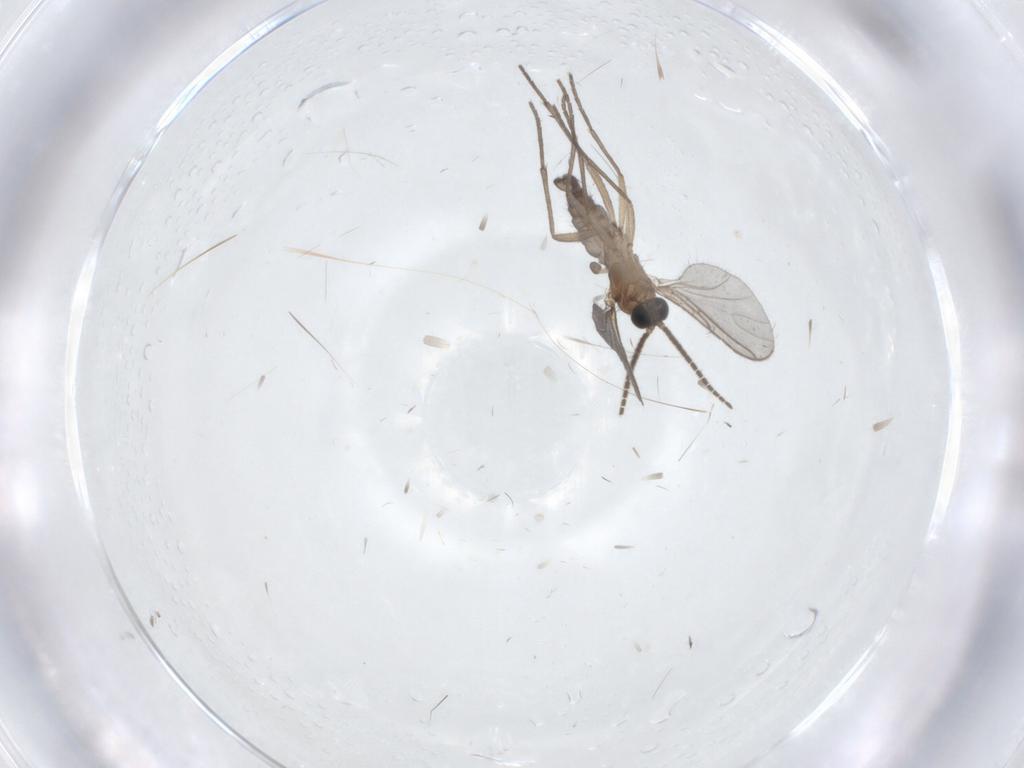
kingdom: Animalia
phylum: Arthropoda
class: Insecta
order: Diptera
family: Sciaridae
